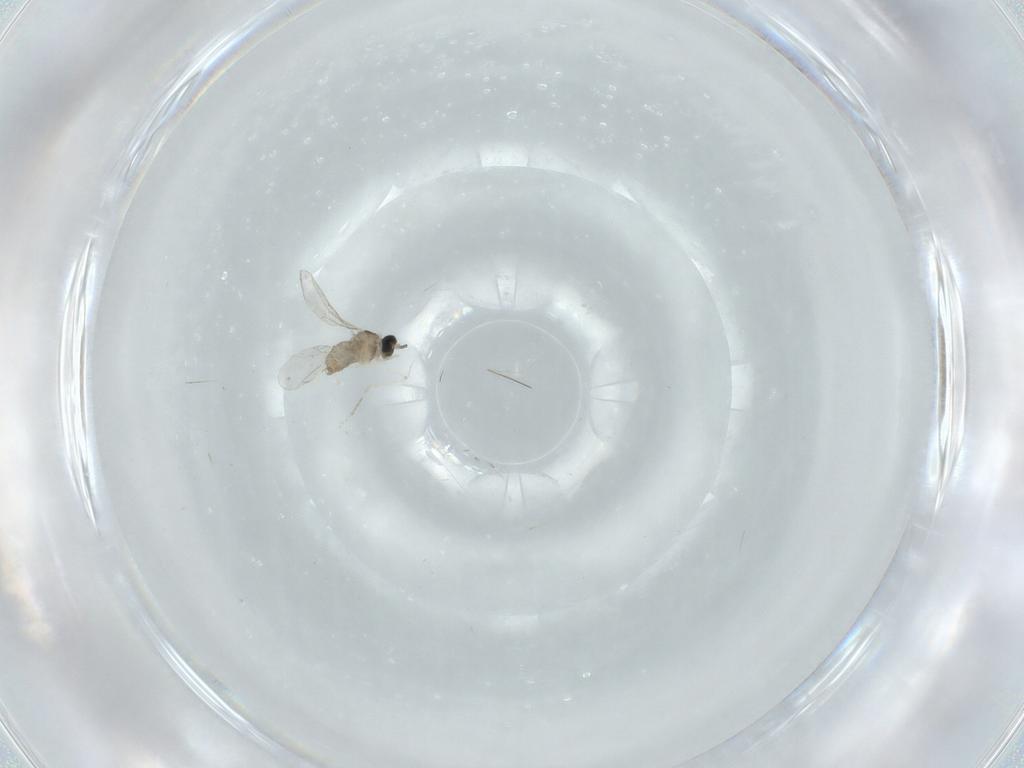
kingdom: Animalia
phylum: Arthropoda
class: Insecta
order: Diptera
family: Cecidomyiidae
